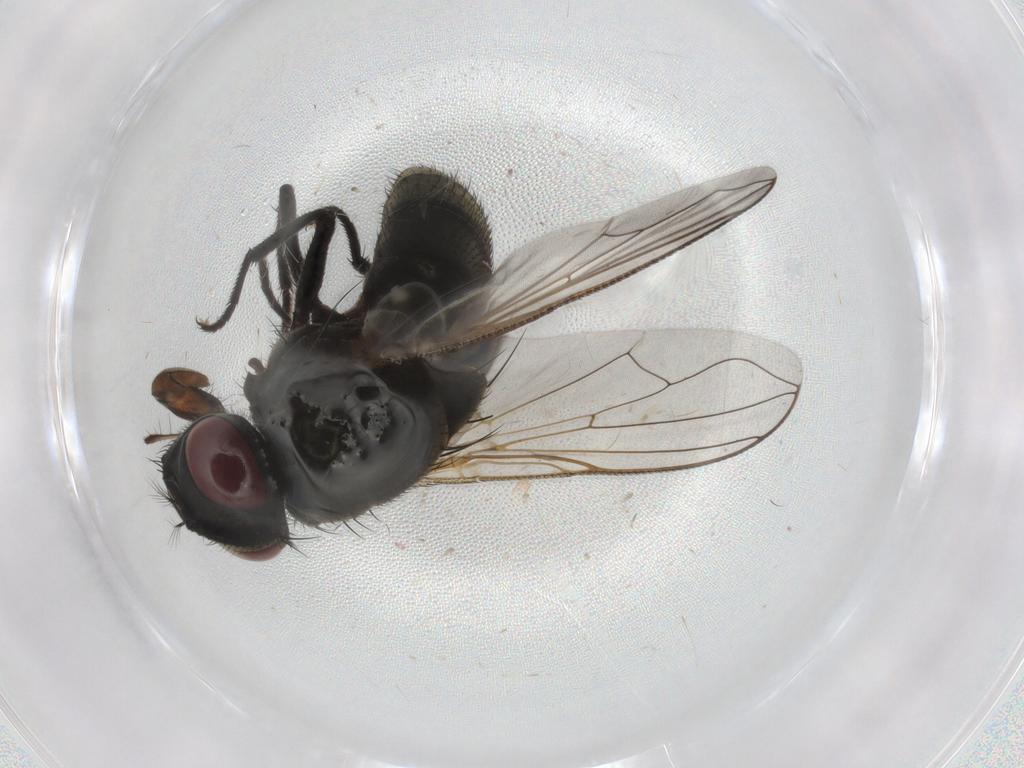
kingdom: Animalia
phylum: Arthropoda
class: Insecta
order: Diptera
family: Muscidae
